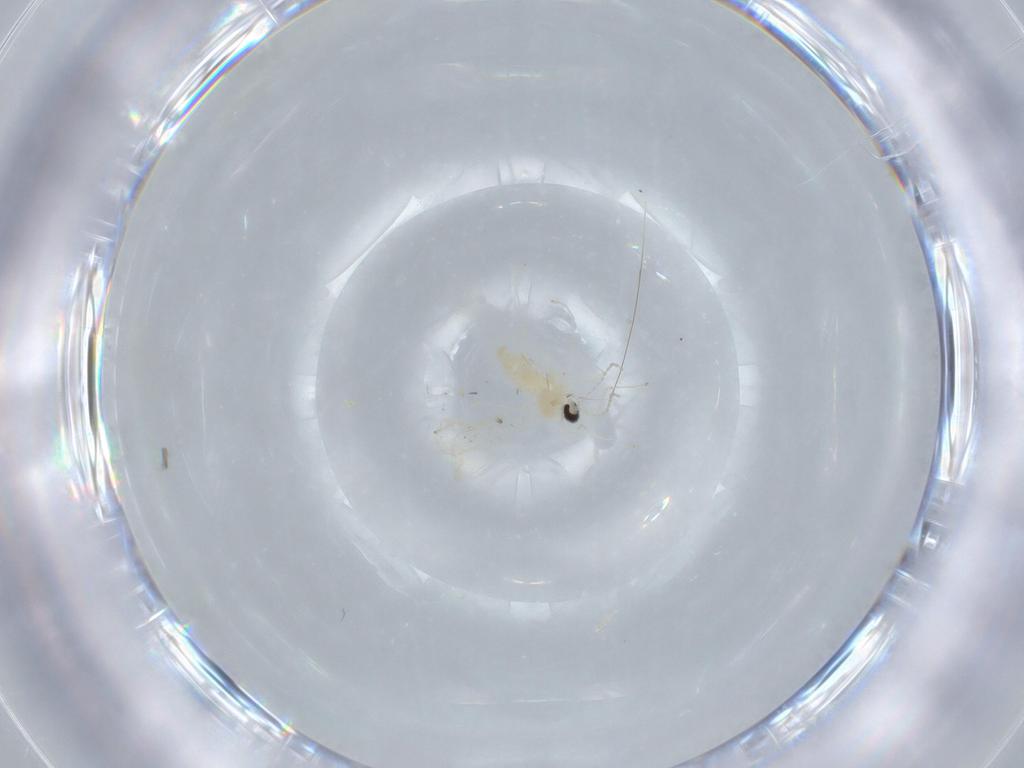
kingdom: Animalia
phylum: Arthropoda
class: Insecta
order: Diptera
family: Cecidomyiidae
